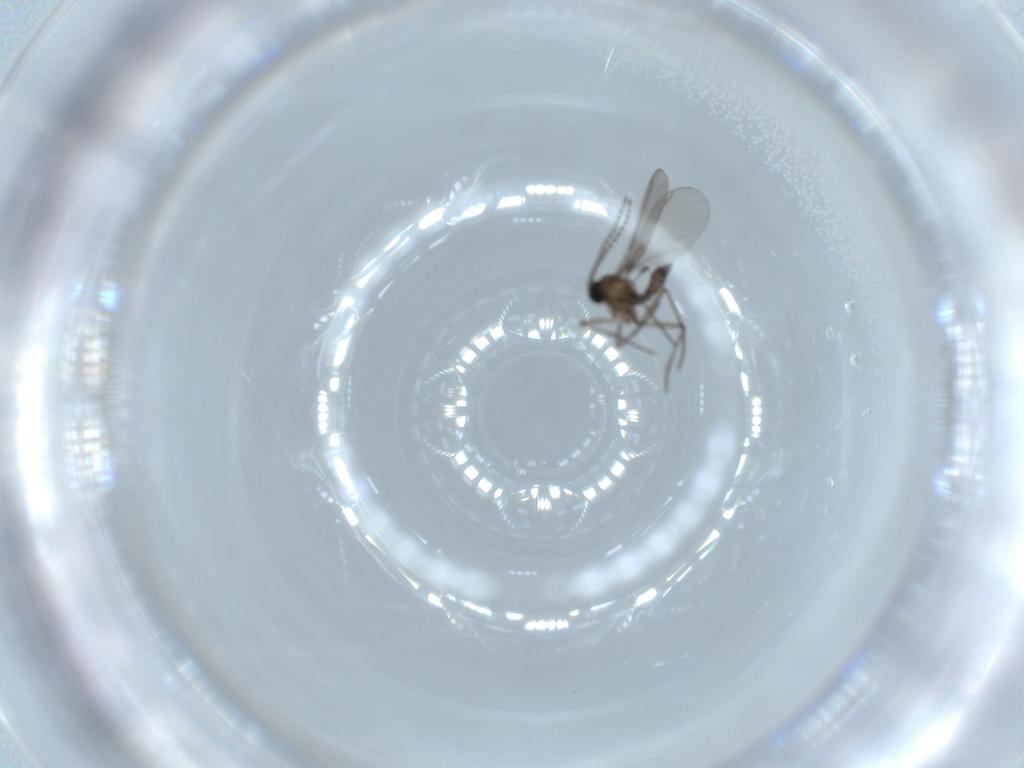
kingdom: Animalia
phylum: Arthropoda
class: Insecta
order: Diptera
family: Sciaridae
